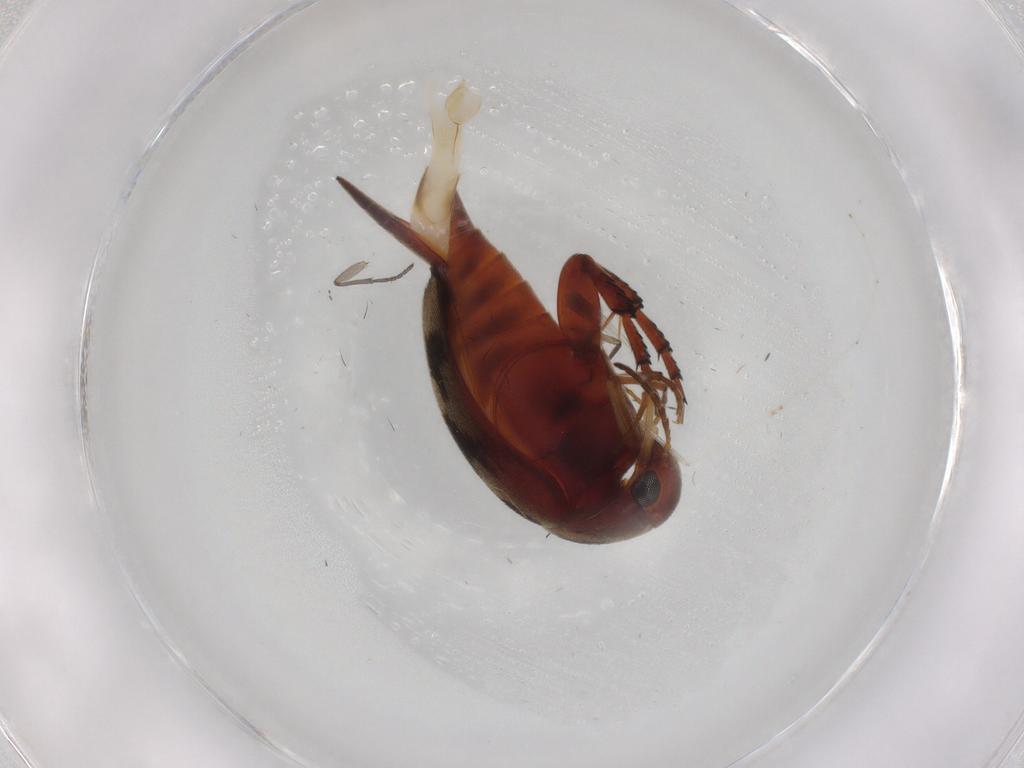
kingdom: Animalia
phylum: Arthropoda
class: Insecta
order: Coleoptera
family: Mordellidae
